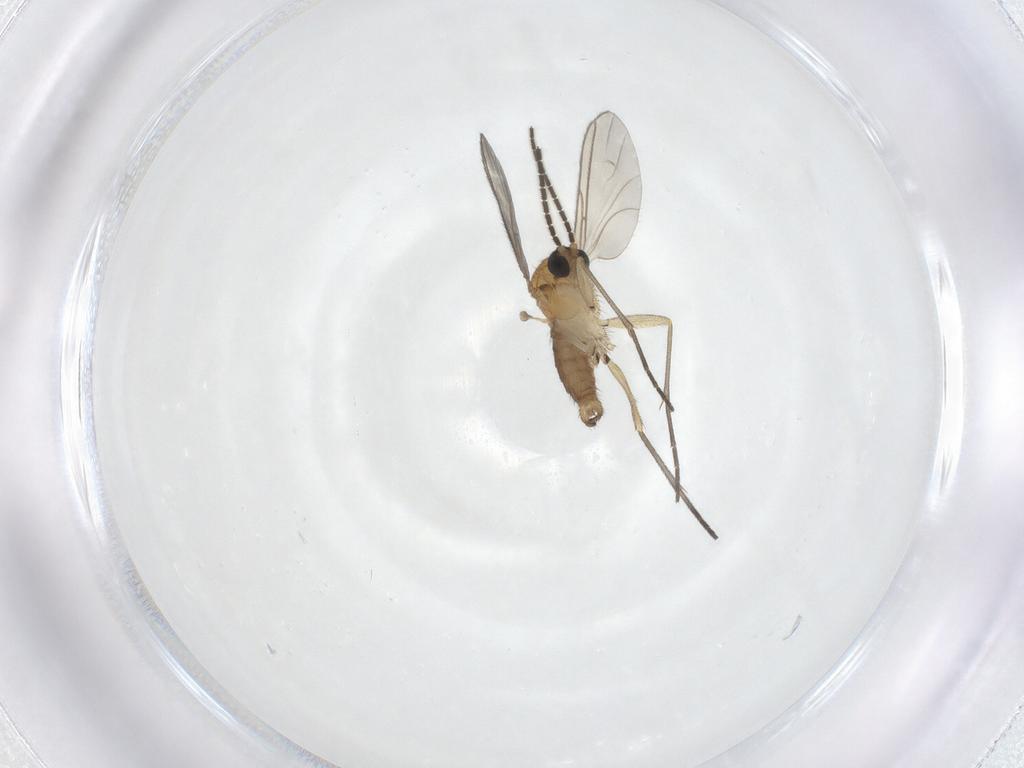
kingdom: Animalia
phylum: Arthropoda
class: Insecta
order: Diptera
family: Sciaridae
